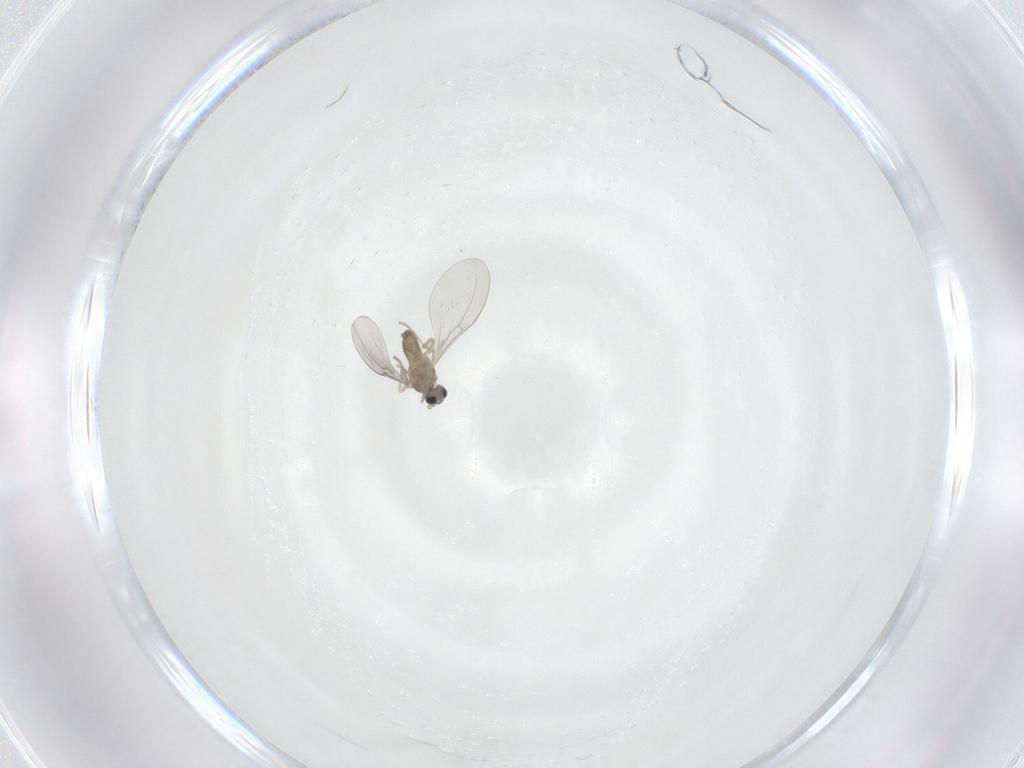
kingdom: Animalia
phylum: Arthropoda
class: Insecta
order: Diptera
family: Cecidomyiidae
